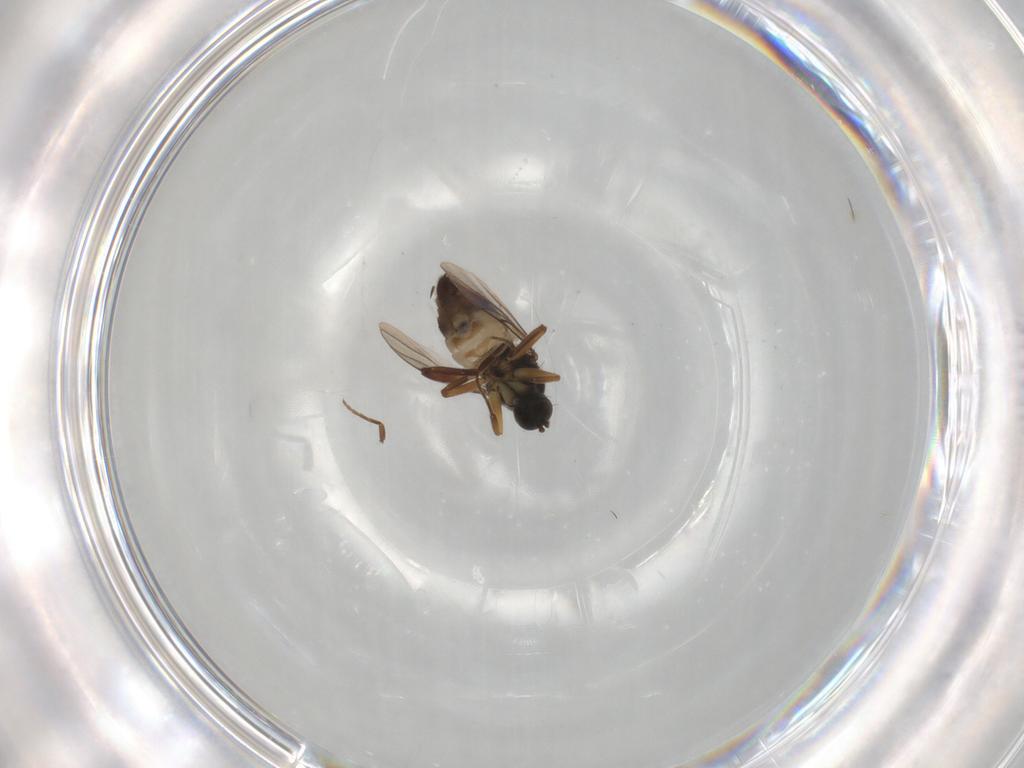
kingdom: Animalia
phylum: Arthropoda
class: Insecta
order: Diptera
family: Hybotidae
